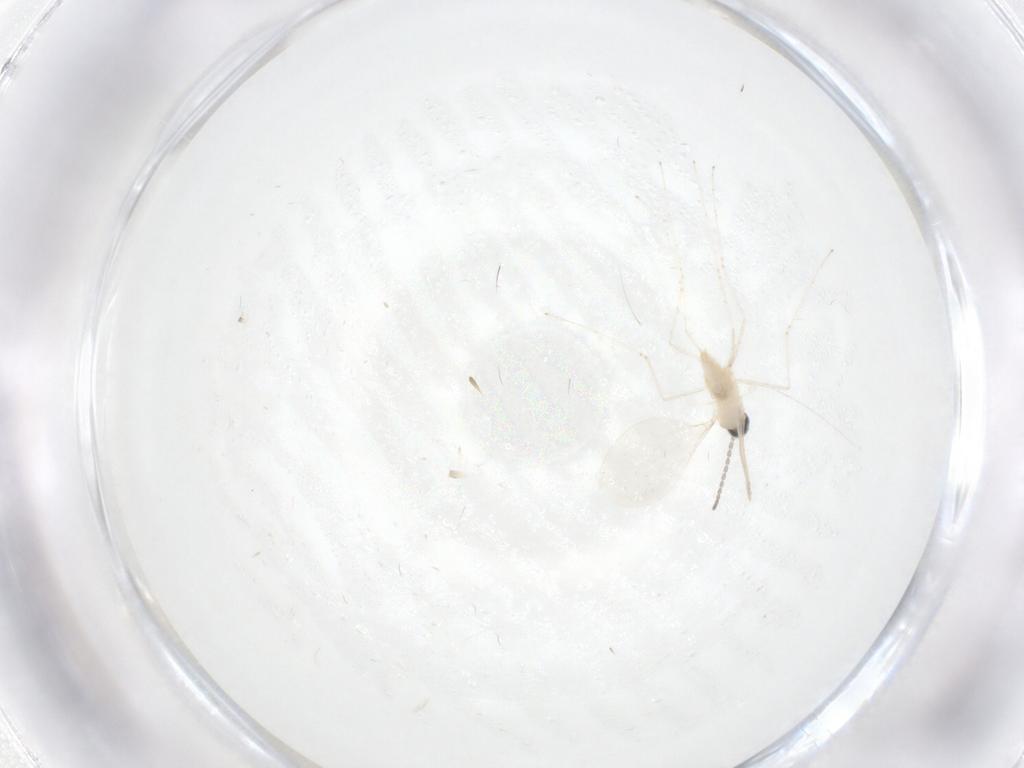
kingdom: Animalia
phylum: Arthropoda
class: Insecta
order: Diptera
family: Cecidomyiidae
